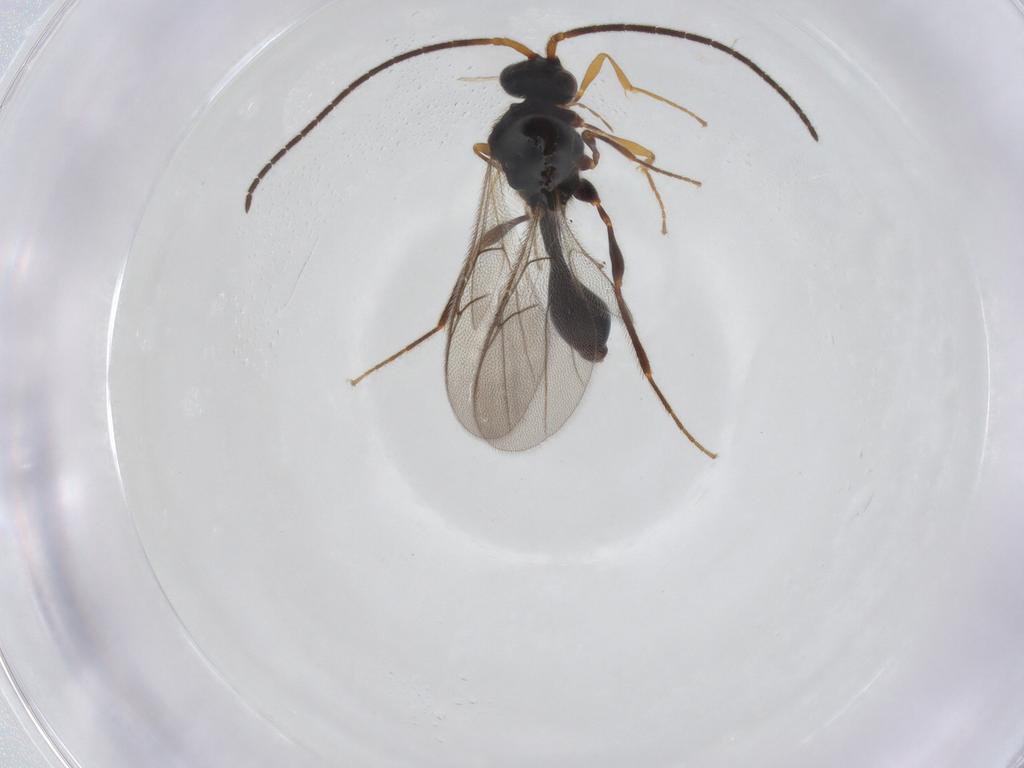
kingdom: Animalia
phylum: Arthropoda
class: Insecta
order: Hymenoptera
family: Diapriidae
